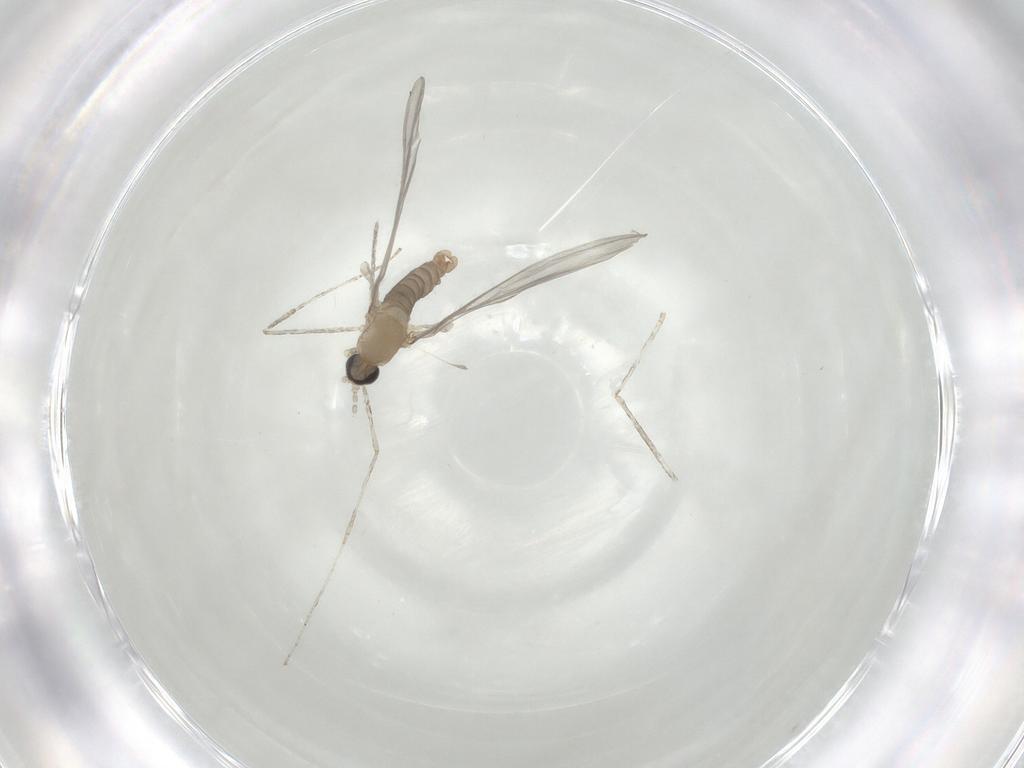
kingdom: Animalia
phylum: Arthropoda
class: Insecta
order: Diptera
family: Cecidomyiidae
